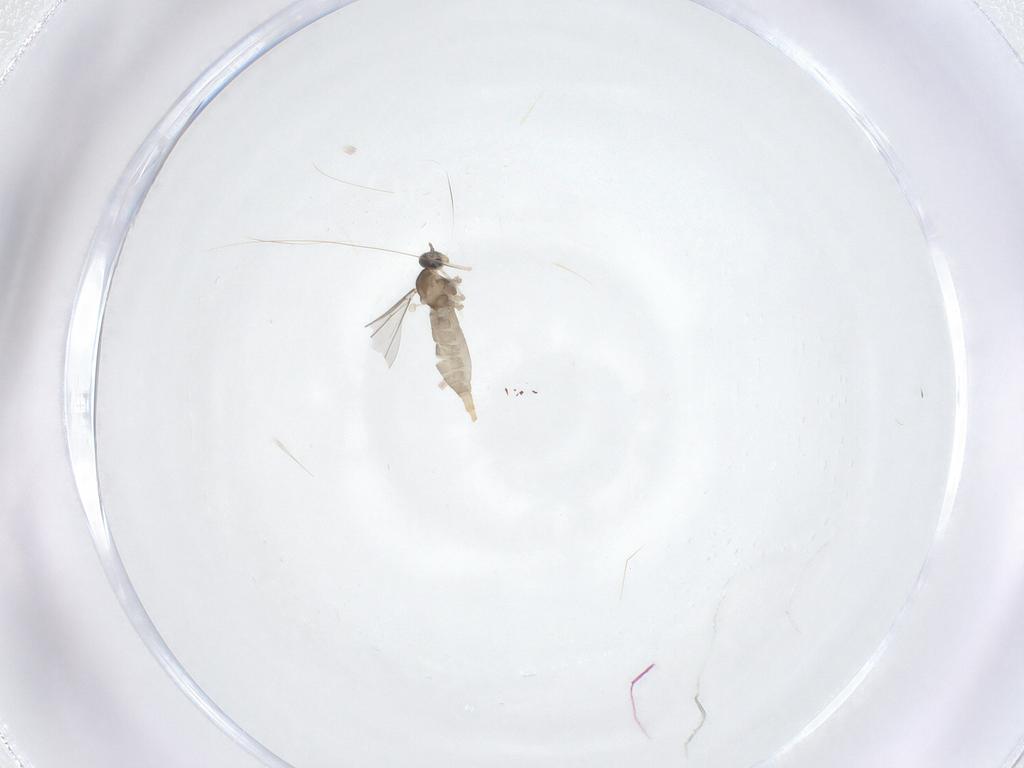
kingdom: Animalia
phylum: Arthropoda
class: Insecta
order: Diptera
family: Cecidomyiidae
